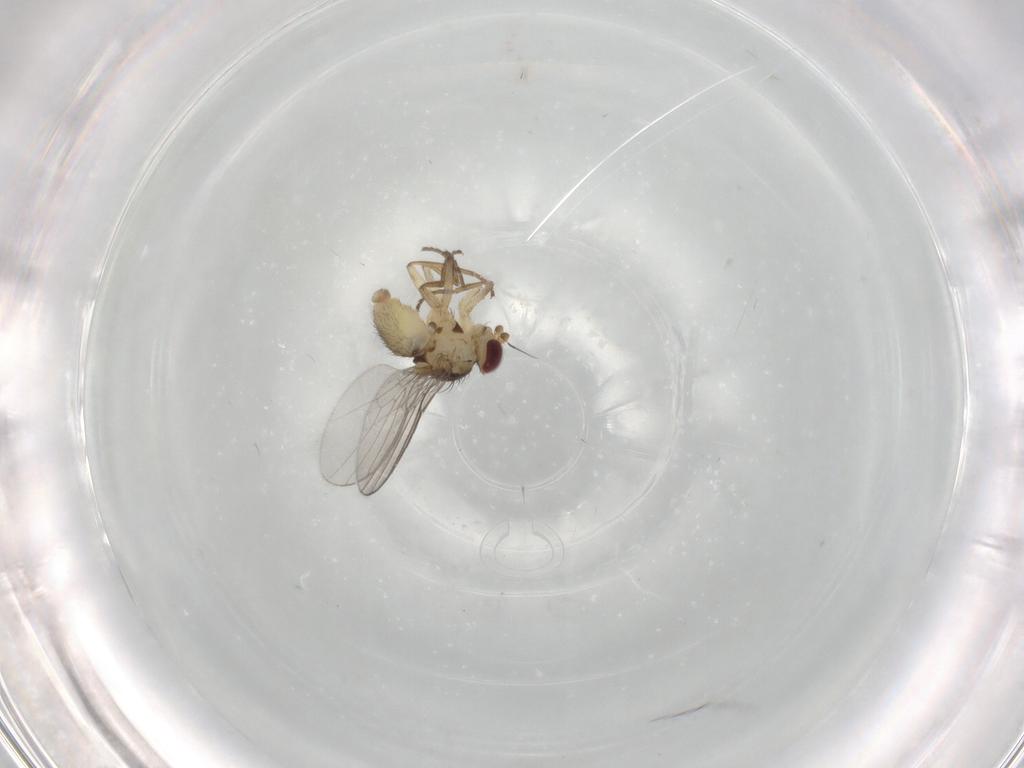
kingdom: Animalia
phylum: Arthropoda
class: Insecta
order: Diptera
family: Agromyzidae
